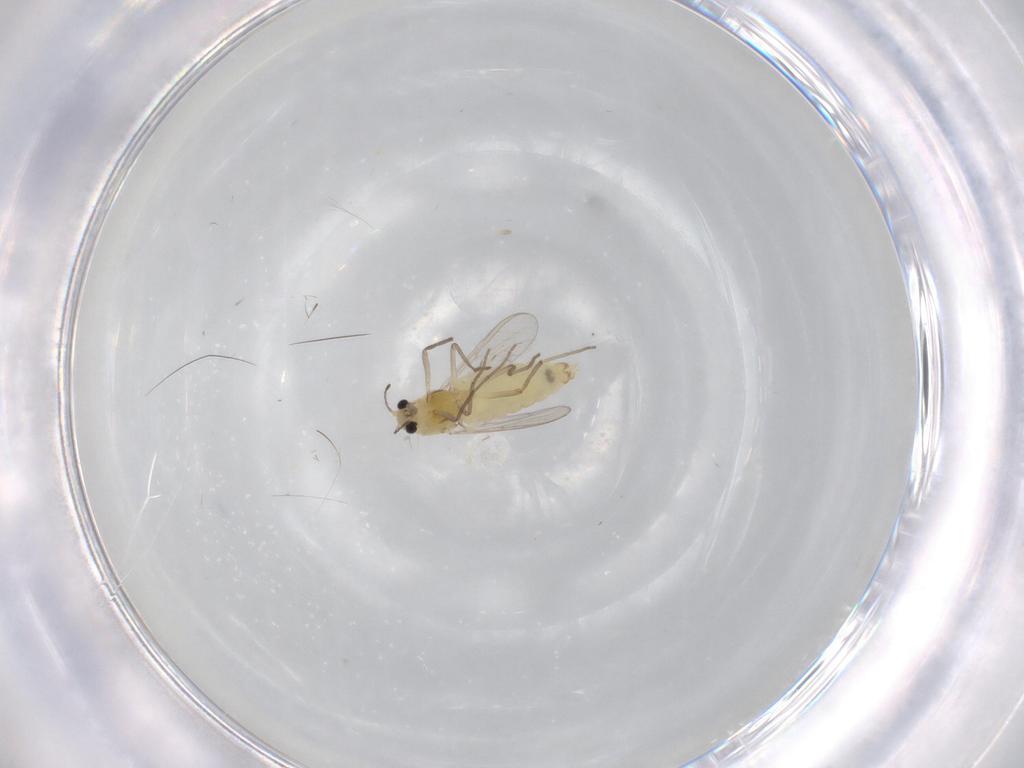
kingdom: Animalia
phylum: Arthropoda
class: Insecta
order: Diptera
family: Chironomidae
